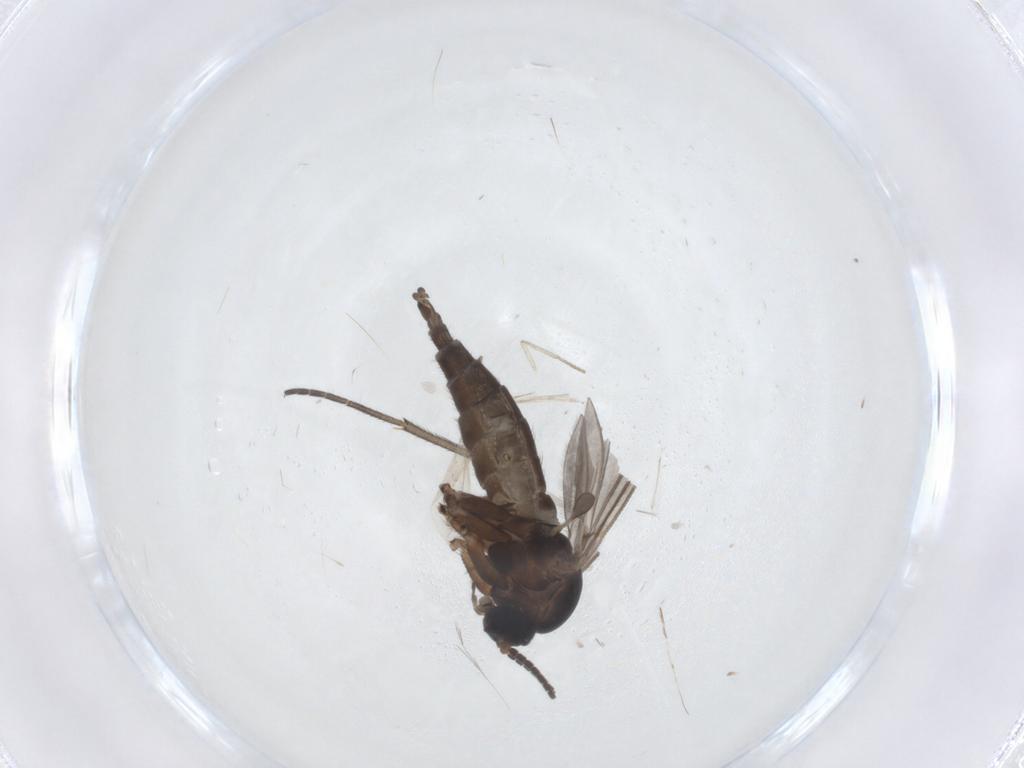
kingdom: Animalia
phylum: Arthropoda
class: Insecta
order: Diptera
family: Sciaridae
